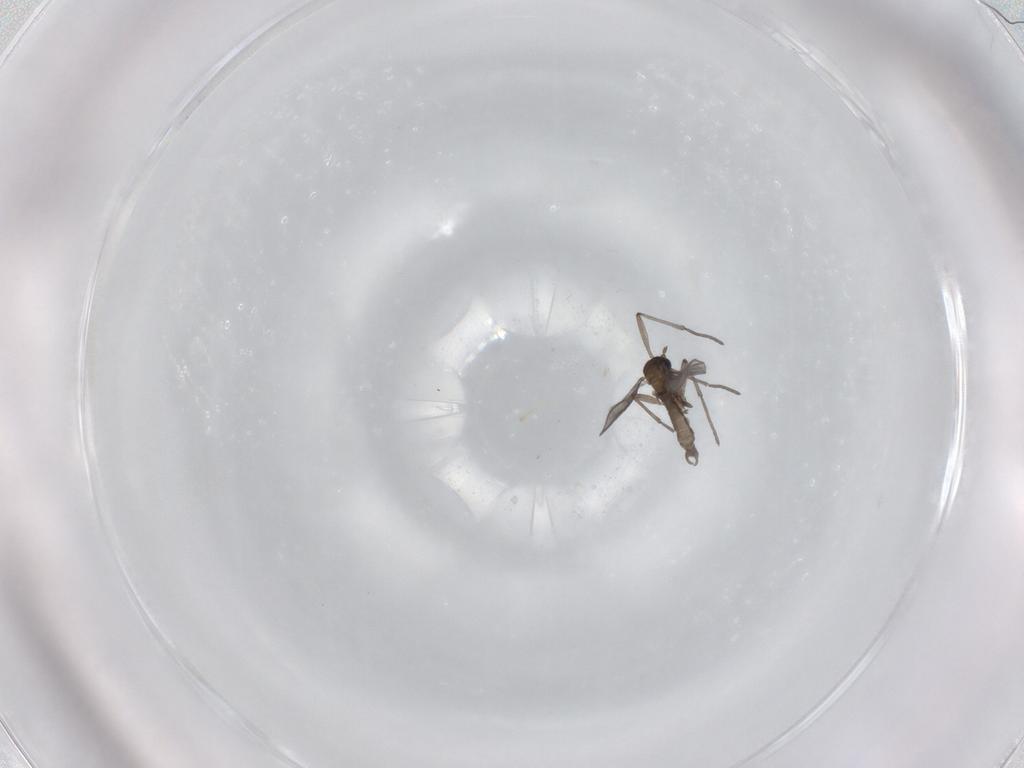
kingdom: Animalia
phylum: Arthropoda
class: Insecta
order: Diptera
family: Sciaridae
